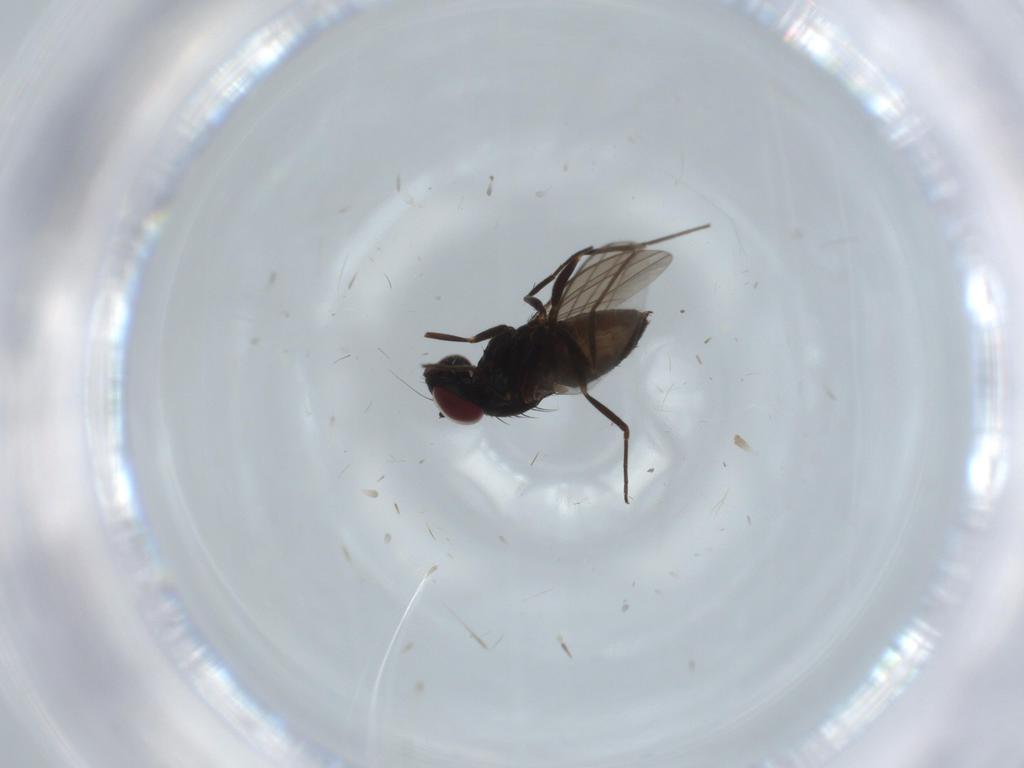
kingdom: Animalia
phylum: Arthropoda
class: Insecta
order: Diptera
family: Dolichopodidae
